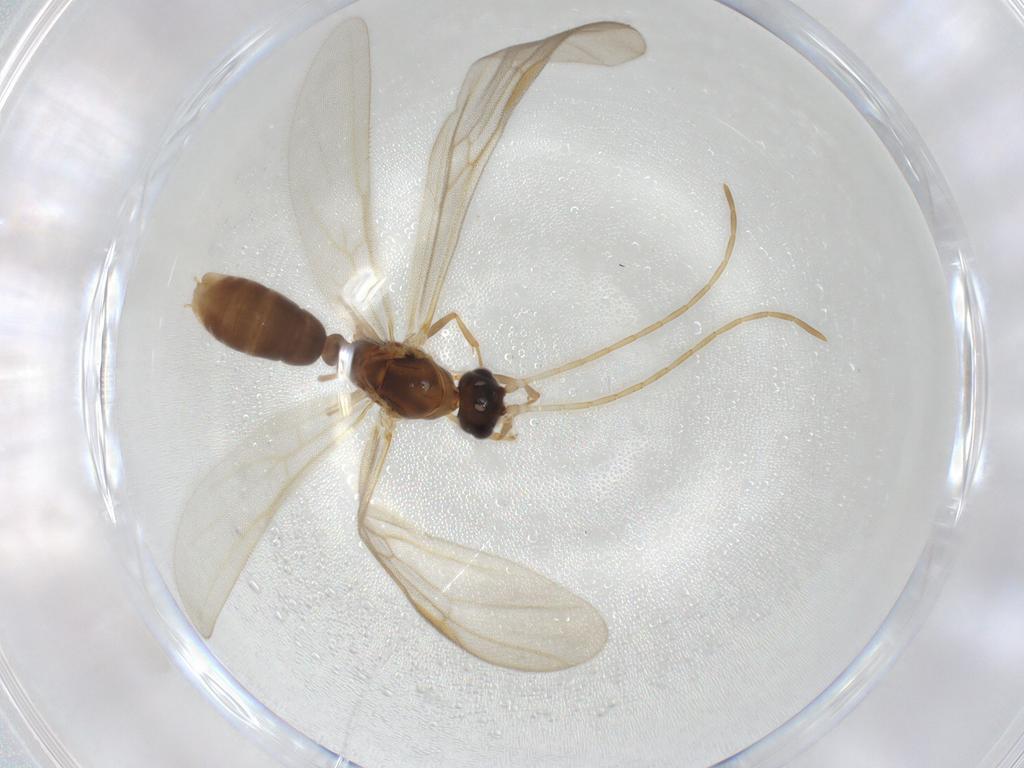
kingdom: Animalia
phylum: Arthropoda
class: Insecta
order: Hymenoptera
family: Formicidae
